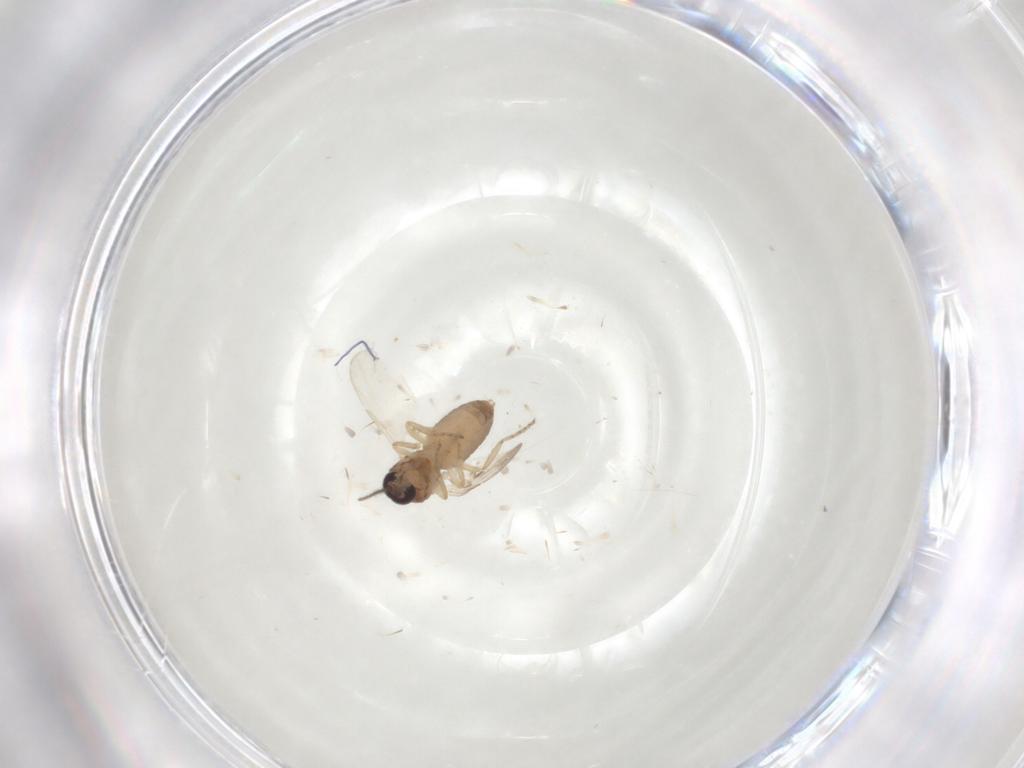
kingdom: Animalia
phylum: Arthropoda
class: Insecta
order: Diptera
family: Ceratopogonidae
